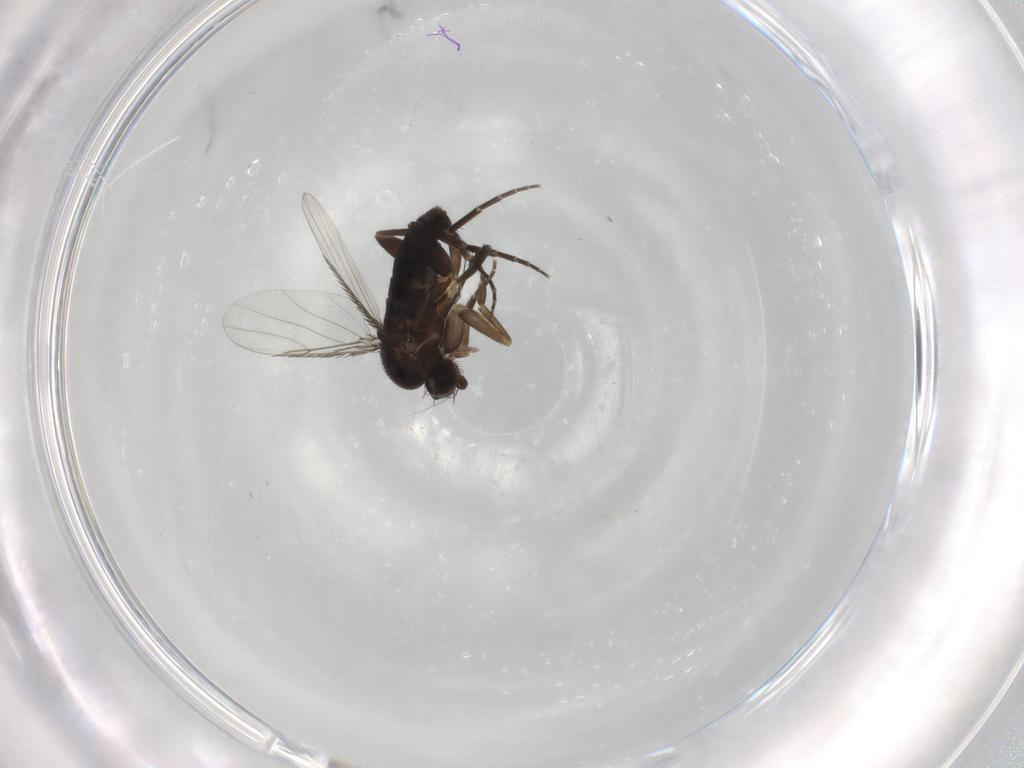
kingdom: Animalia
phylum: Arthropoda
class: Insecta
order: Diptera
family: Phoridae
